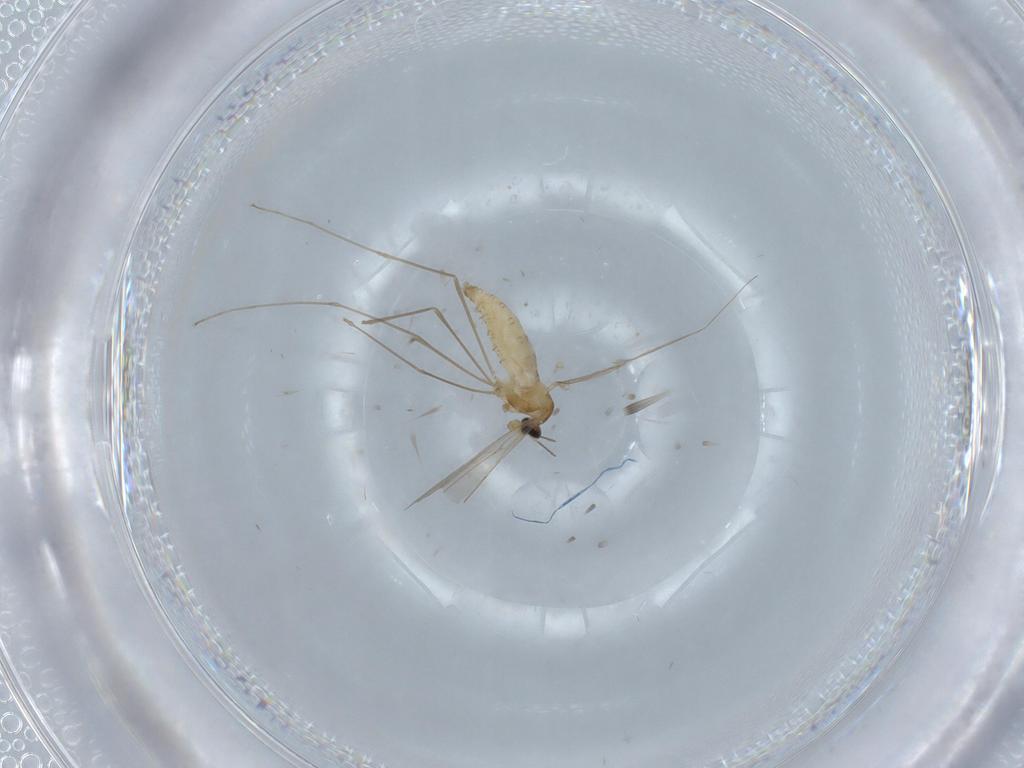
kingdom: Animalia
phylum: Arthropoda
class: Insecta
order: Diptera
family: Cecidomyiidae
